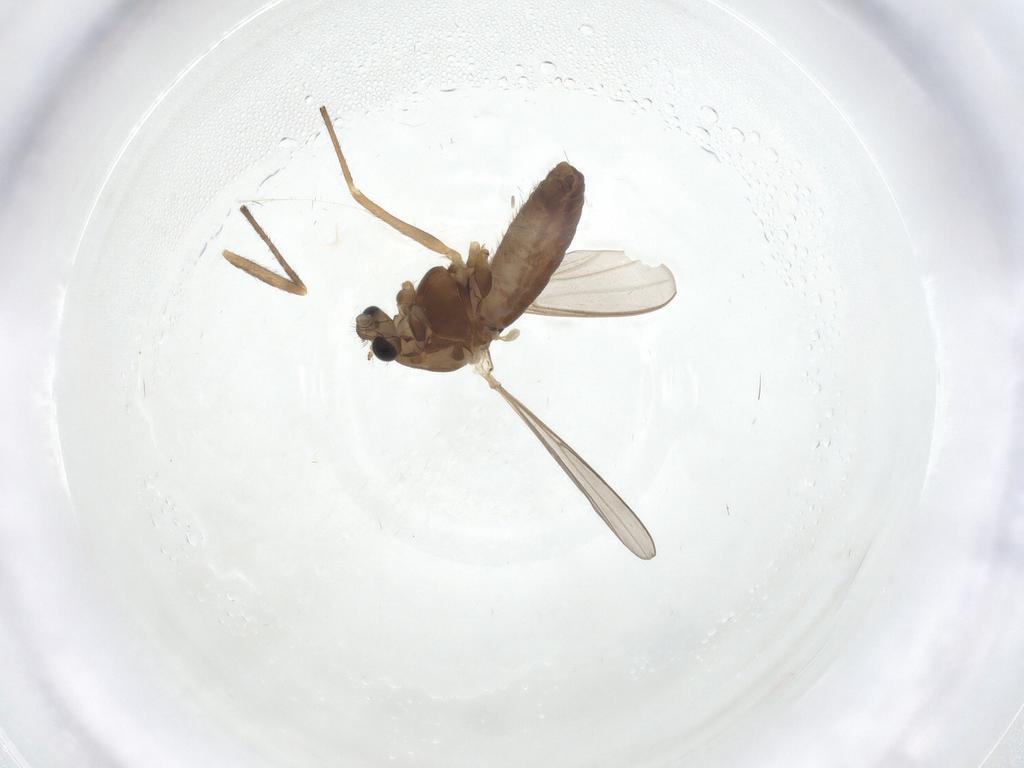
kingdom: Animalia
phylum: Arthropoda
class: Insecta
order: Diptera
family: Chironomidae
